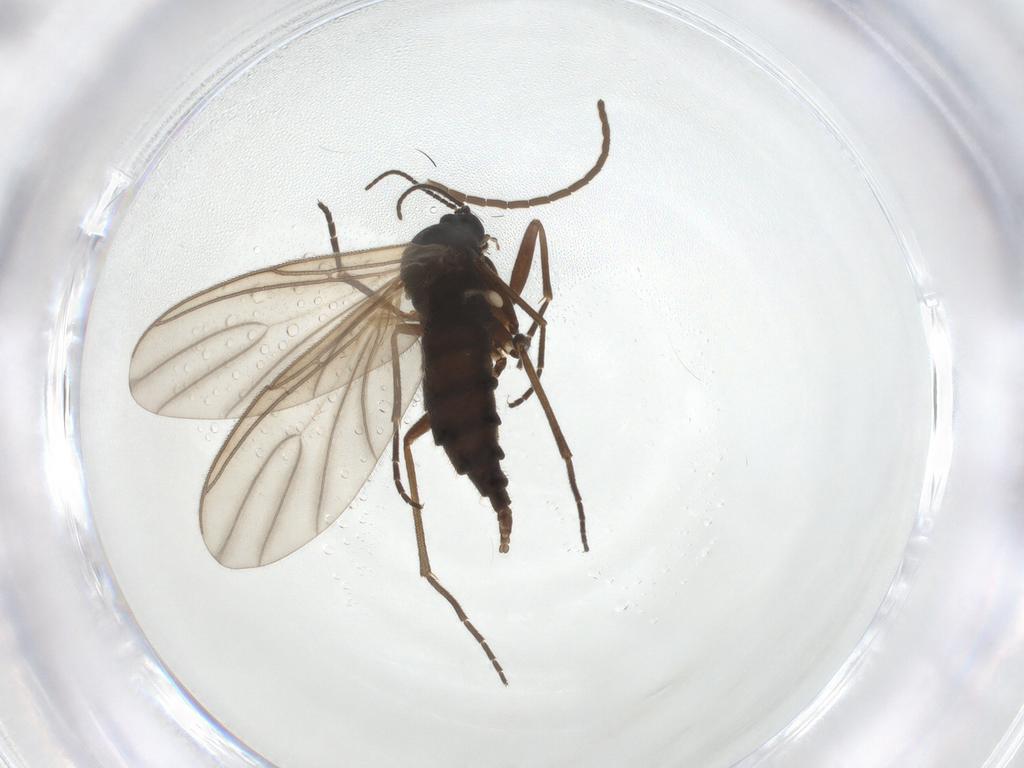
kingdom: Animalia
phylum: Arthropoda
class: Insecta
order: Diptera
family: Sciaridae
